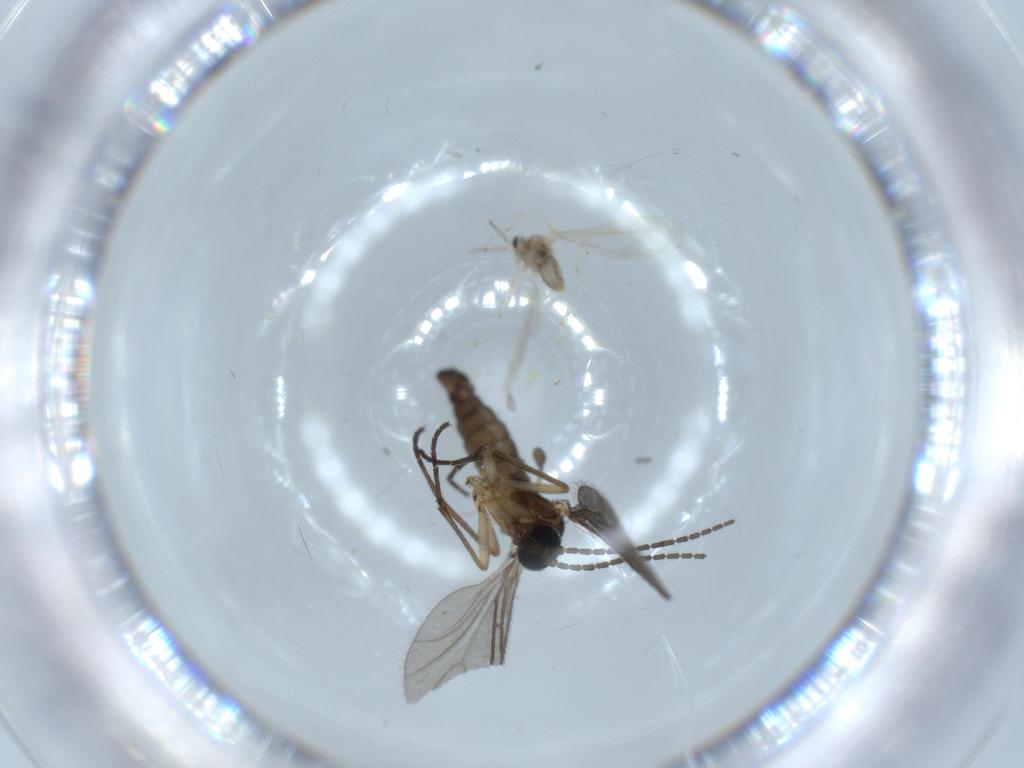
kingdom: Animalia
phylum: Arthropoda
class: Insecta
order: Diptera
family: Cecidomyiidae
